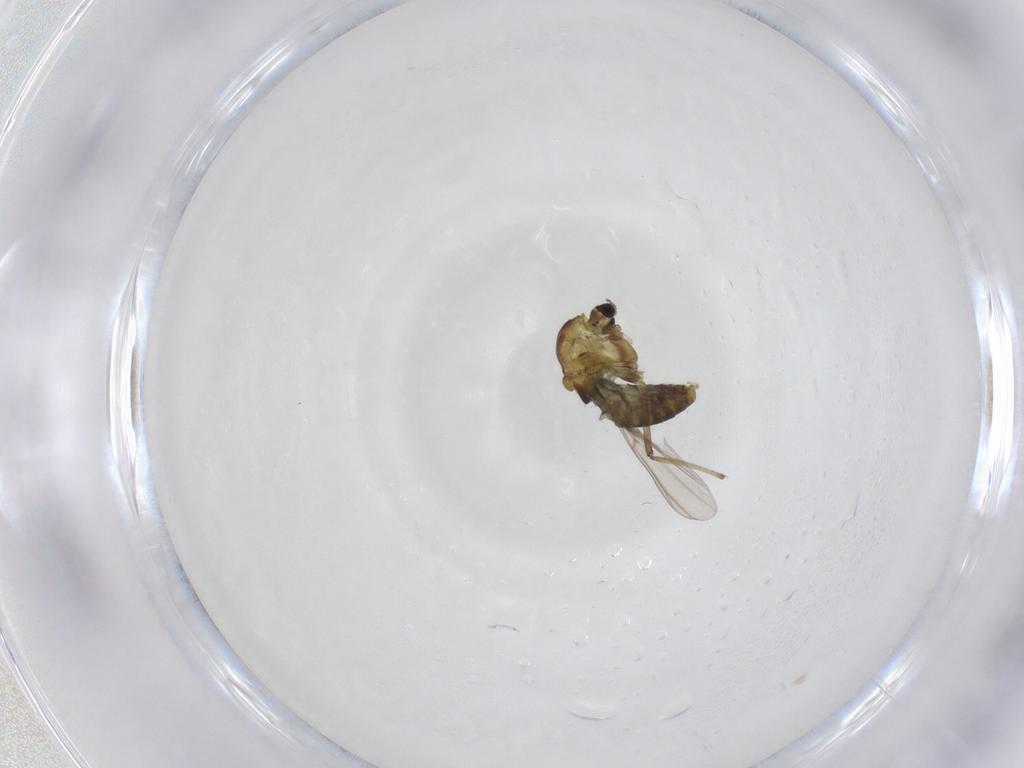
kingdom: Animalia
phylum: Arthropoda
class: Insecta
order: Diptera
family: Chironomidae
